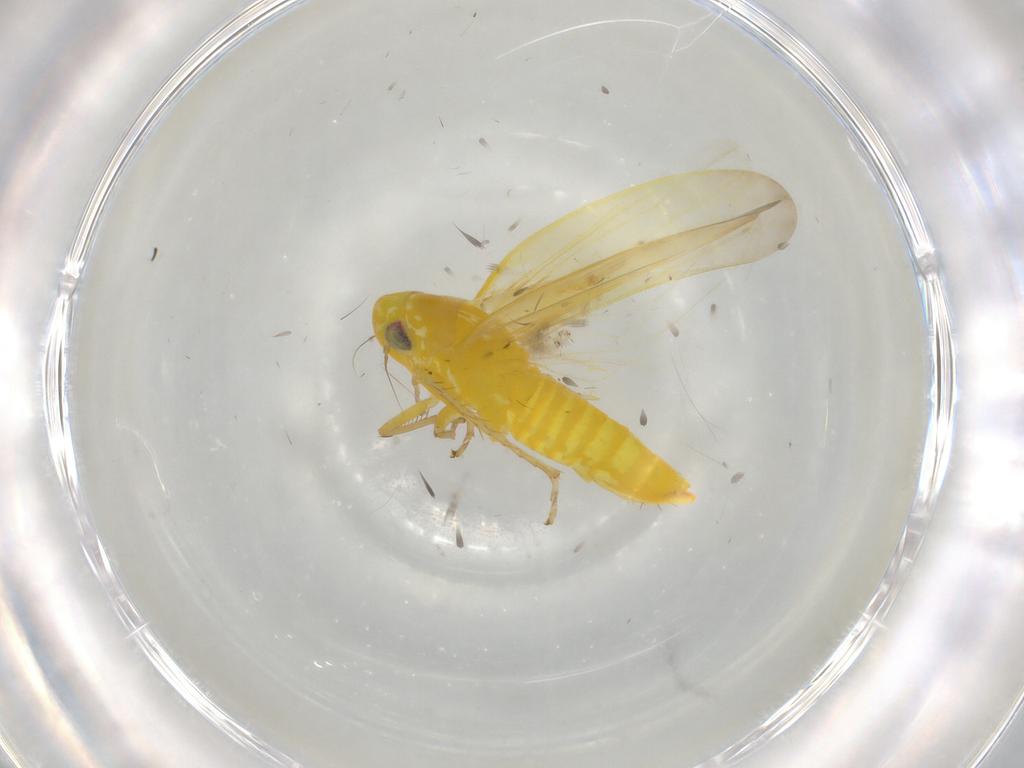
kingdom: Animalia
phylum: Arthropoda
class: Insecta
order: Hemiptera
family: Cicadellidae
